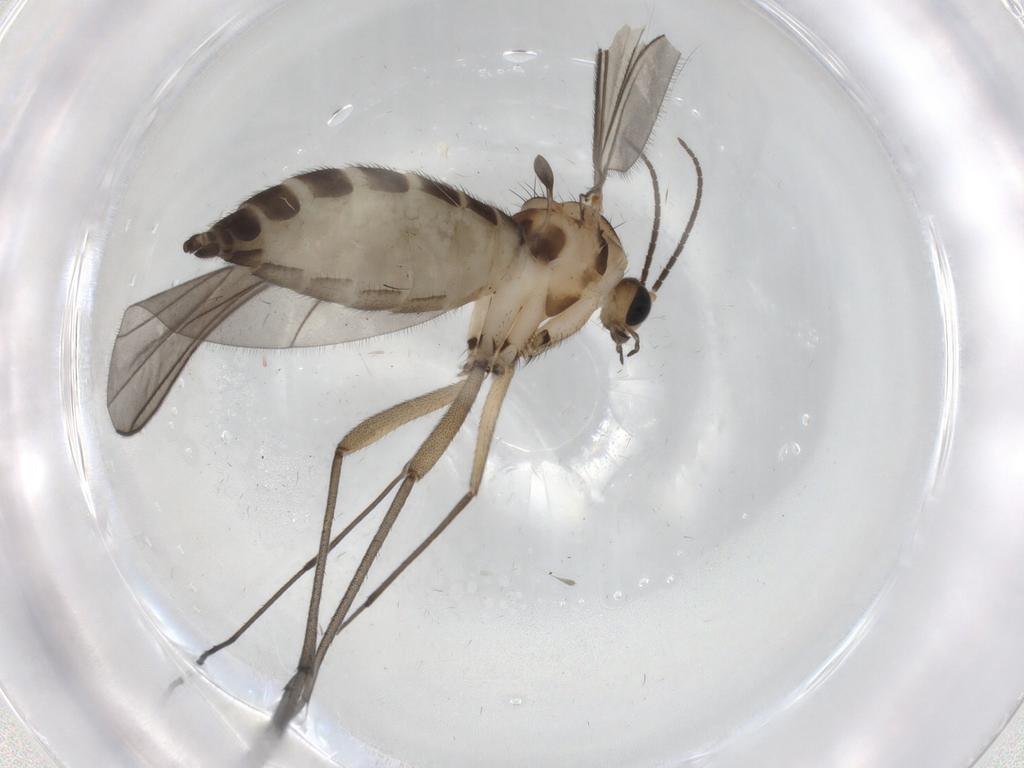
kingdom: Animalia
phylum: Arthropoda
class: Insecta
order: Diptera
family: Sciaridae
